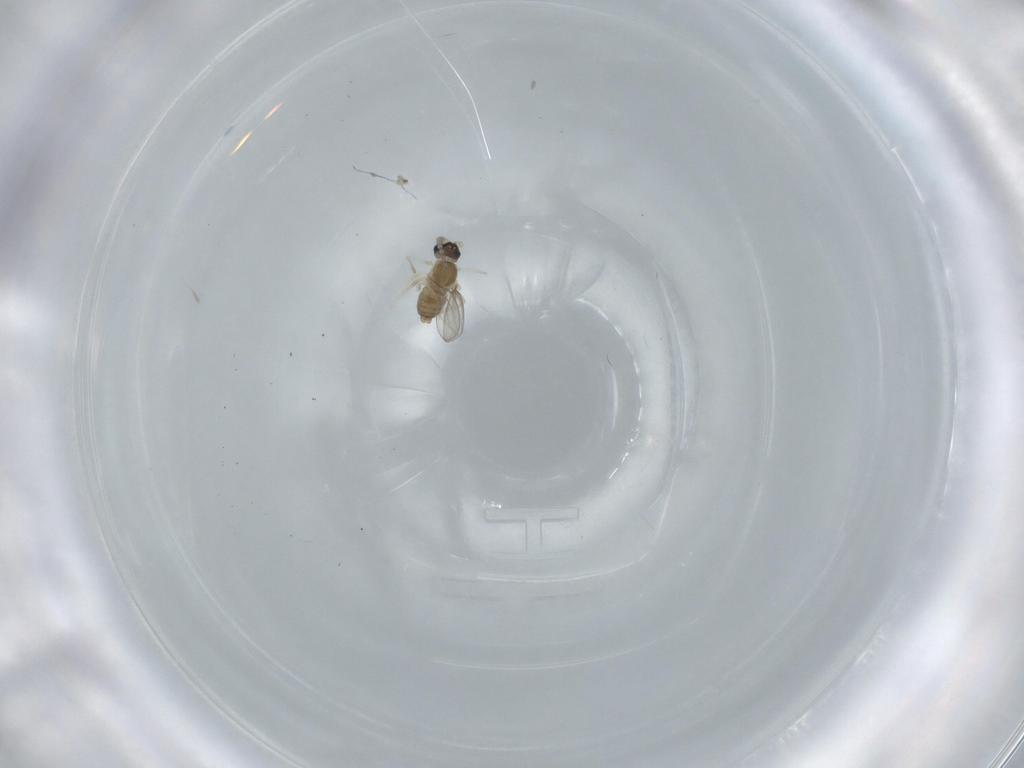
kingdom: Animalia
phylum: Arthropoda
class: Insecta
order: Diptera
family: Cecidomyiidae
